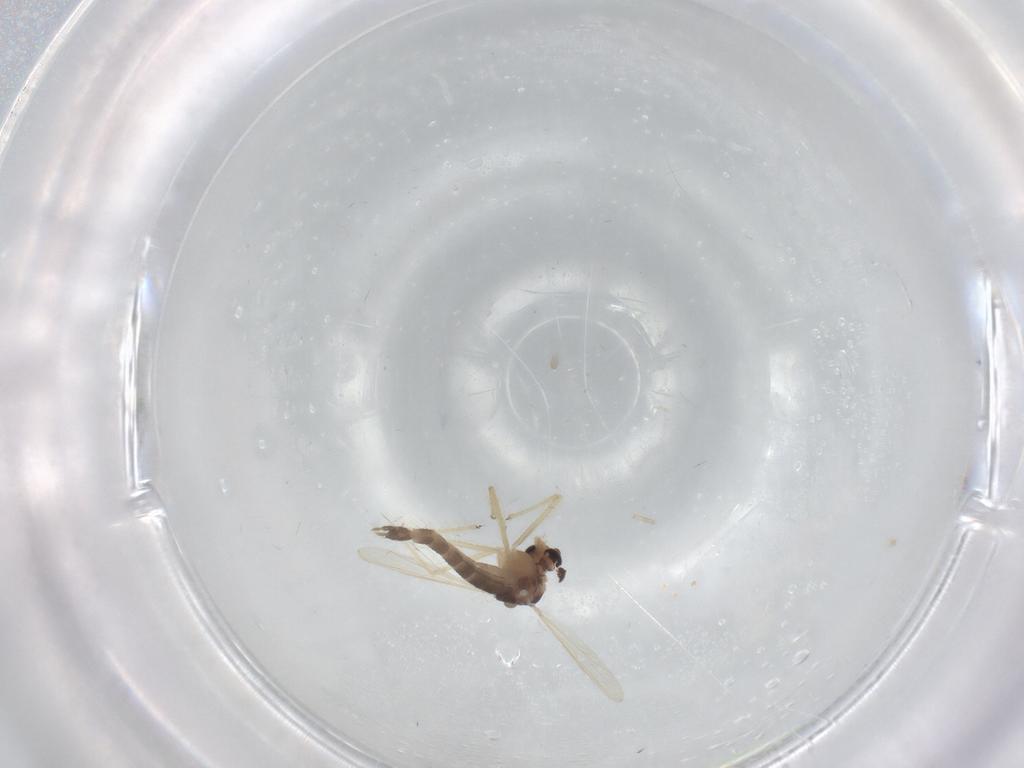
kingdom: Animalia
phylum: Arthropoda
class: Insecta
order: Diptera
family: Chironomidae
